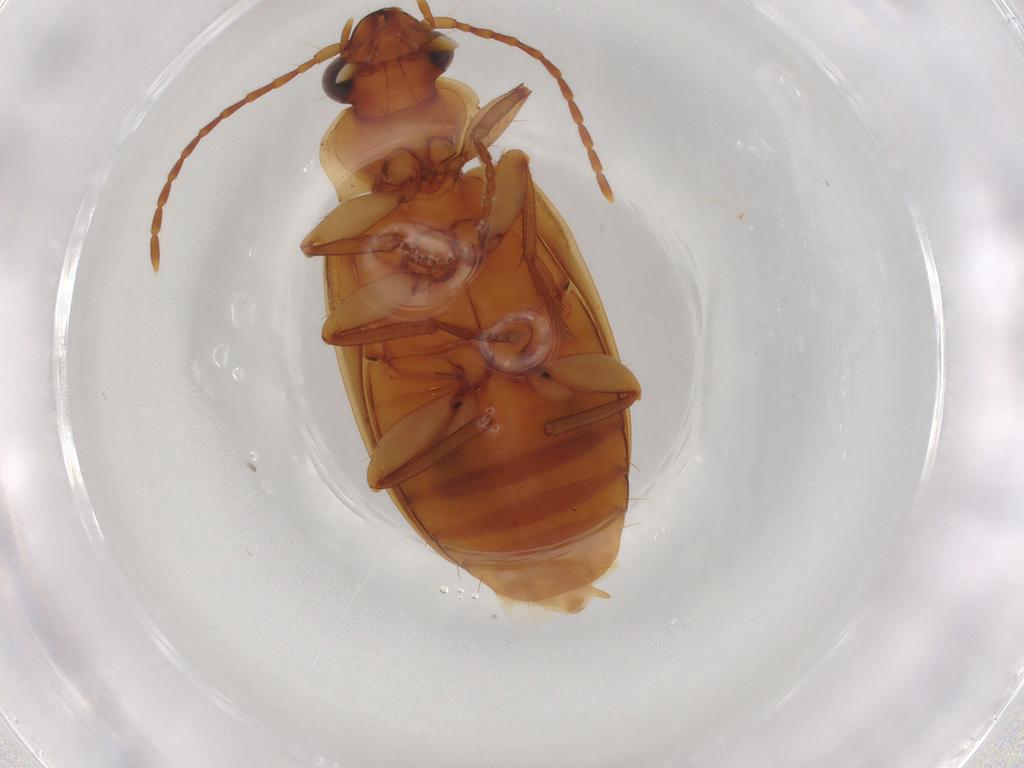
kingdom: Animalia
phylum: Arthropoda
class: Insecta
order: Coleoptera
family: Carabidae
